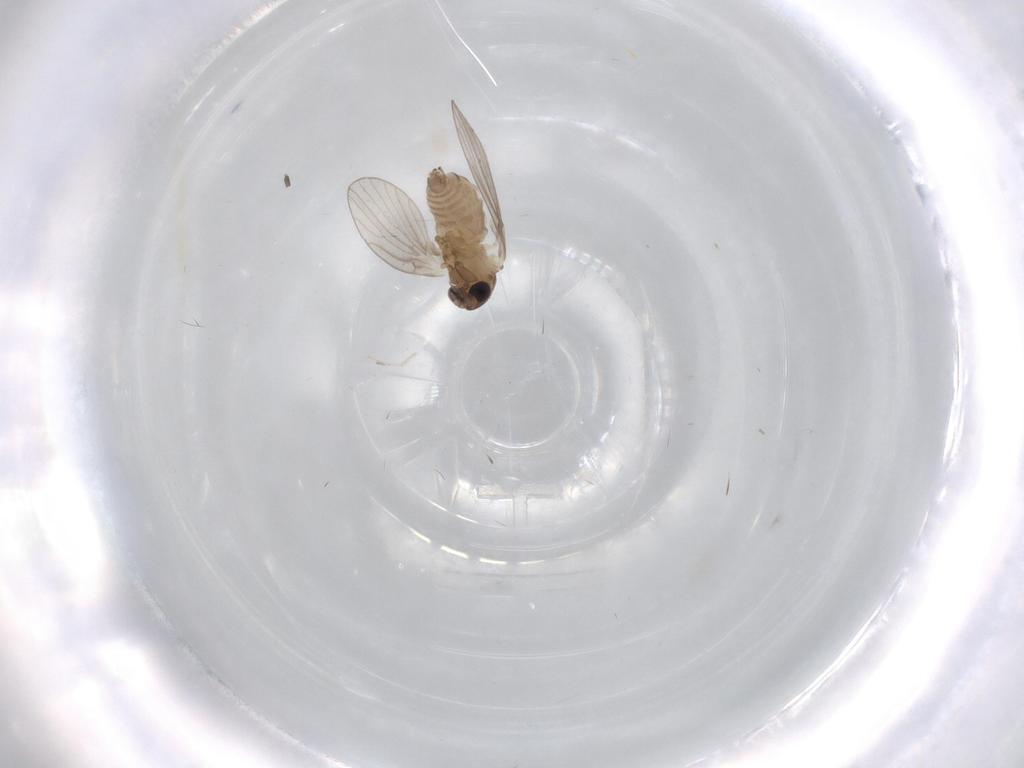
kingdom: Animalia
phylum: Arthropoda
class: Insecta
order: Diptera
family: Psychodidae
